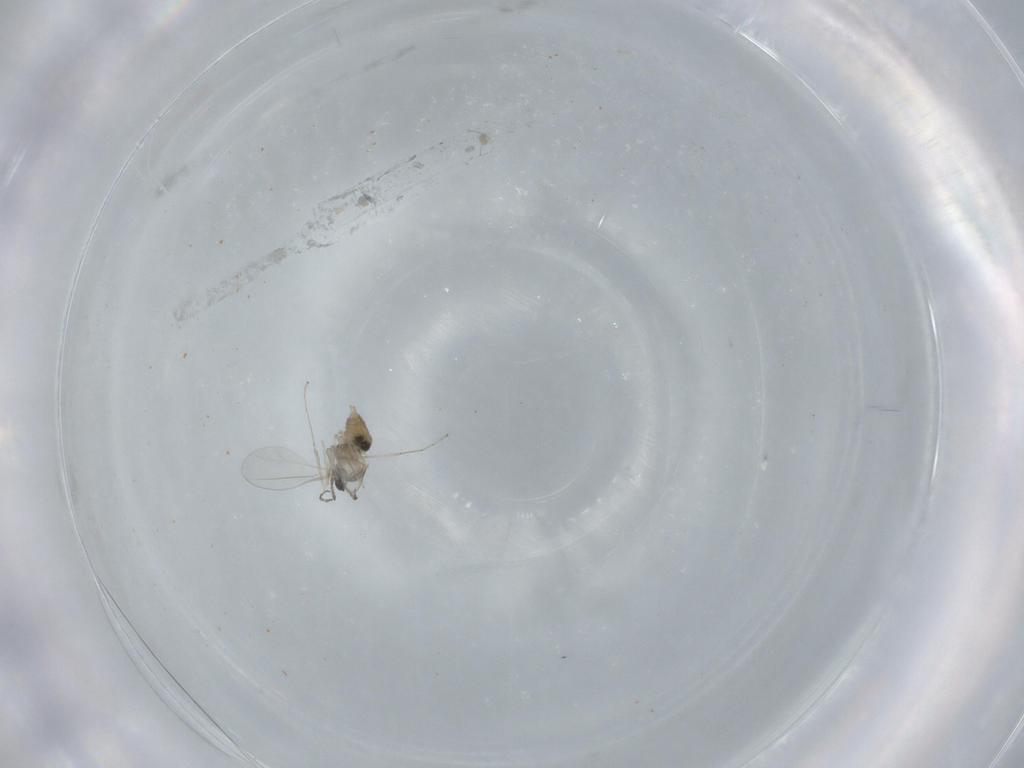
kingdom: Animalia
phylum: Arthropoda
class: Insecta
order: Diptera
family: Cecidomyiidae
